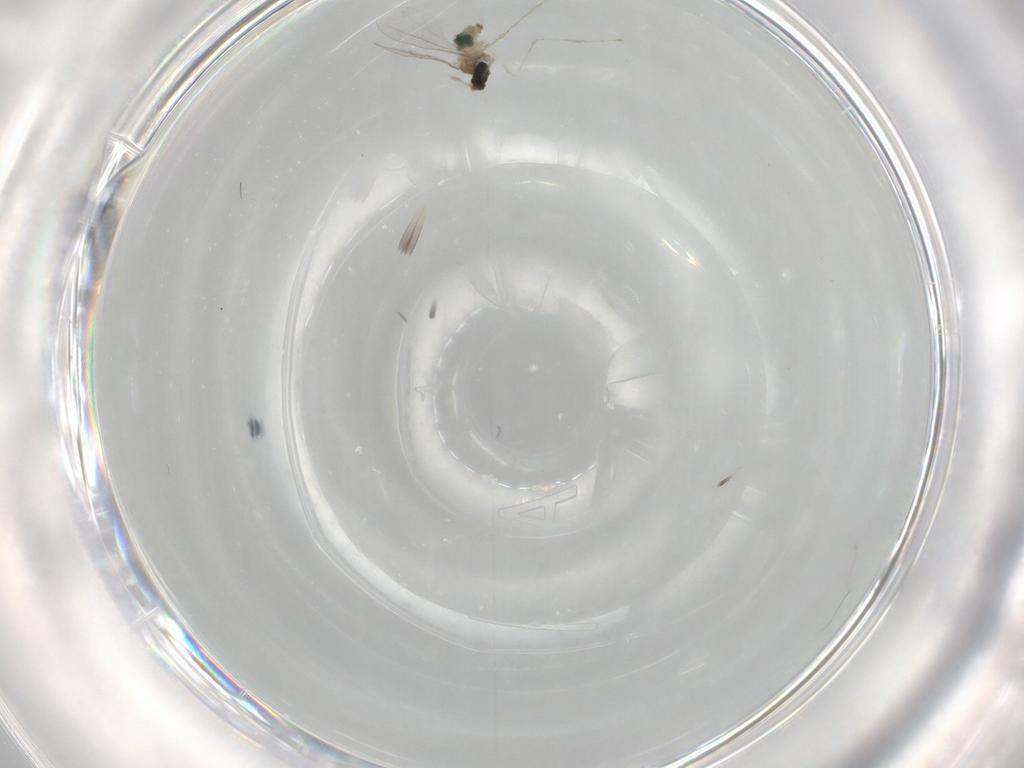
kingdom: Animalia
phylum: Arthropoda
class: Insecta
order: Diptera
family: Cecidomyiidae
